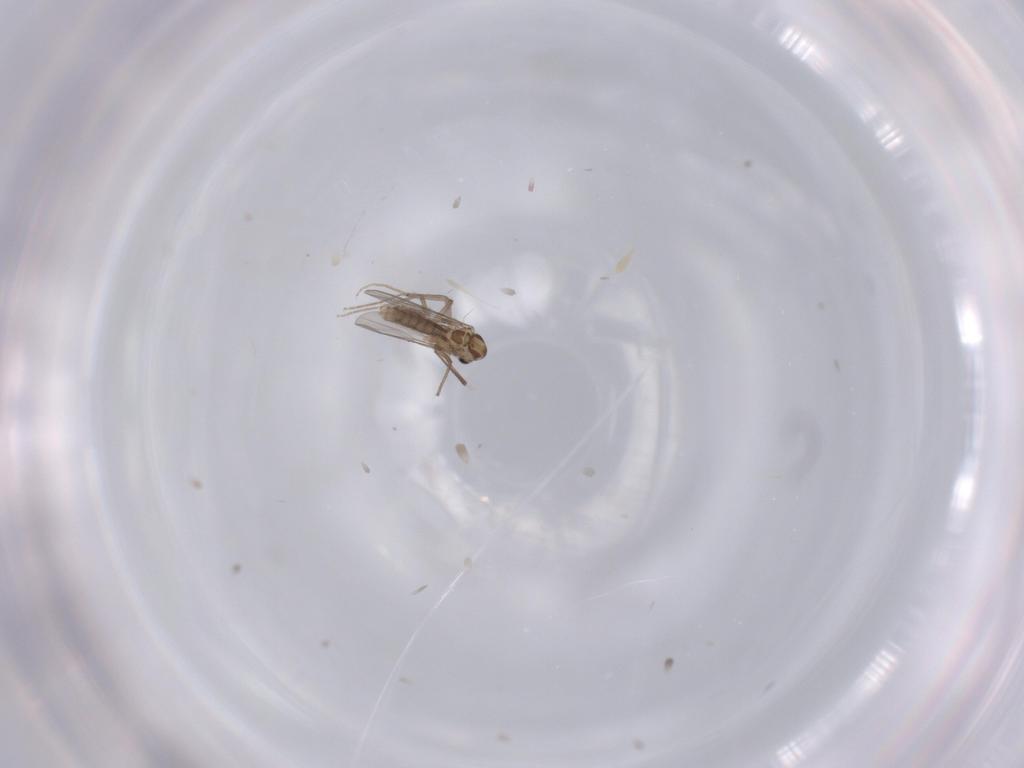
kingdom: Animalia
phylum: Arthropoda
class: Insecta
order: Diptera
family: Chironomidae
